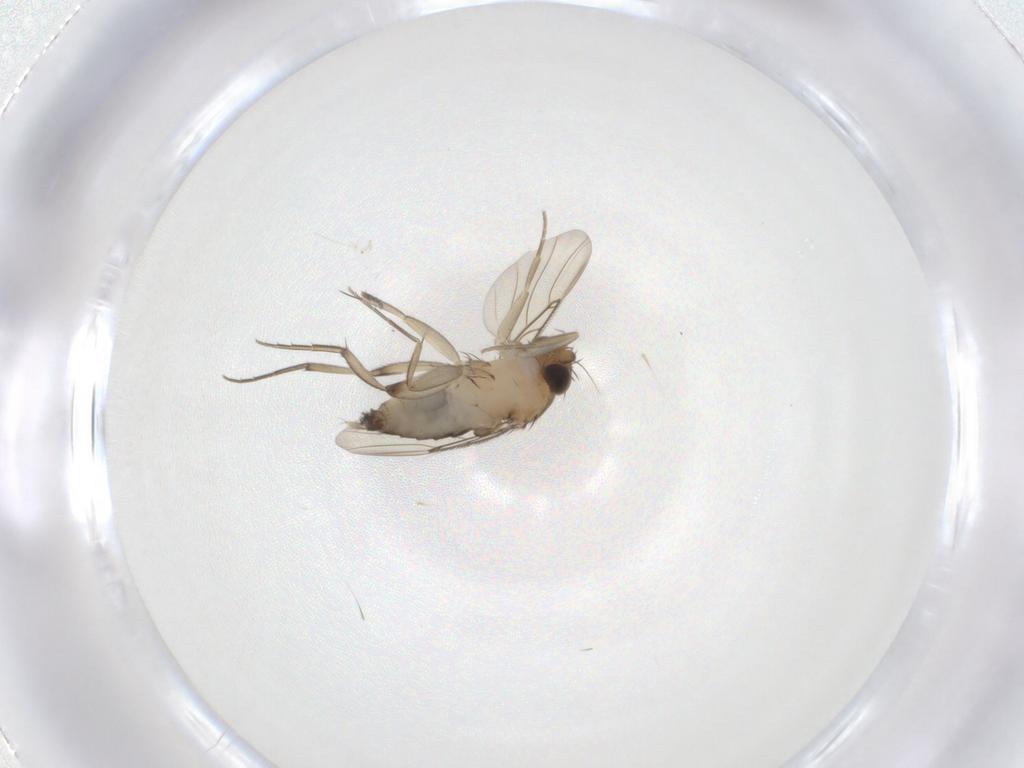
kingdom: Animalia
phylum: Arthropoda
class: Insecta
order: Diptera
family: Phoridae
